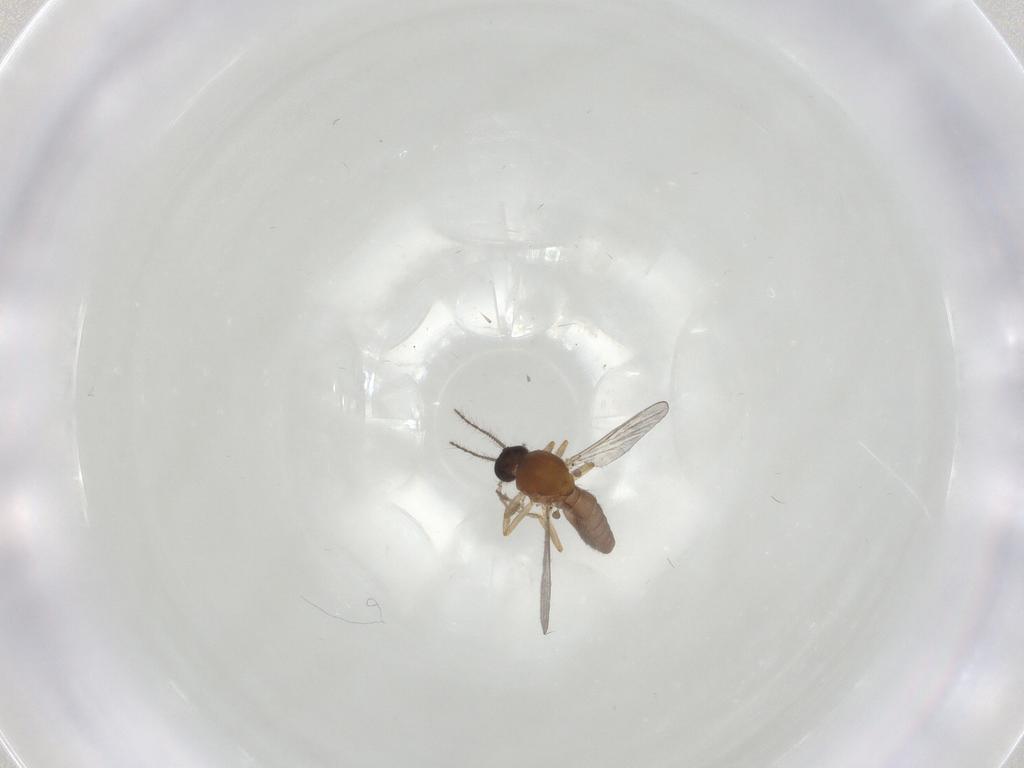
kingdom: Animalia
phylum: Arthropoda
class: Insecta
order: Diptera
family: Ceratopogonidae
